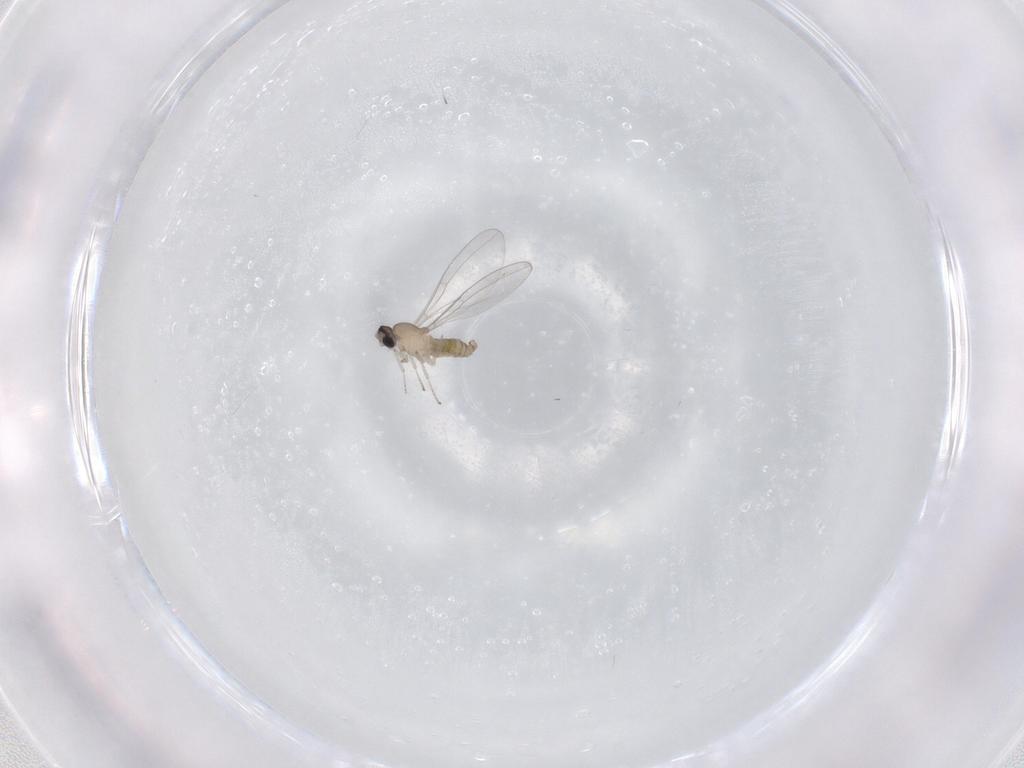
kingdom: Animalia
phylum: Arthropoda
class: Insecta
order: Diptera
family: Cecidomyiidae
